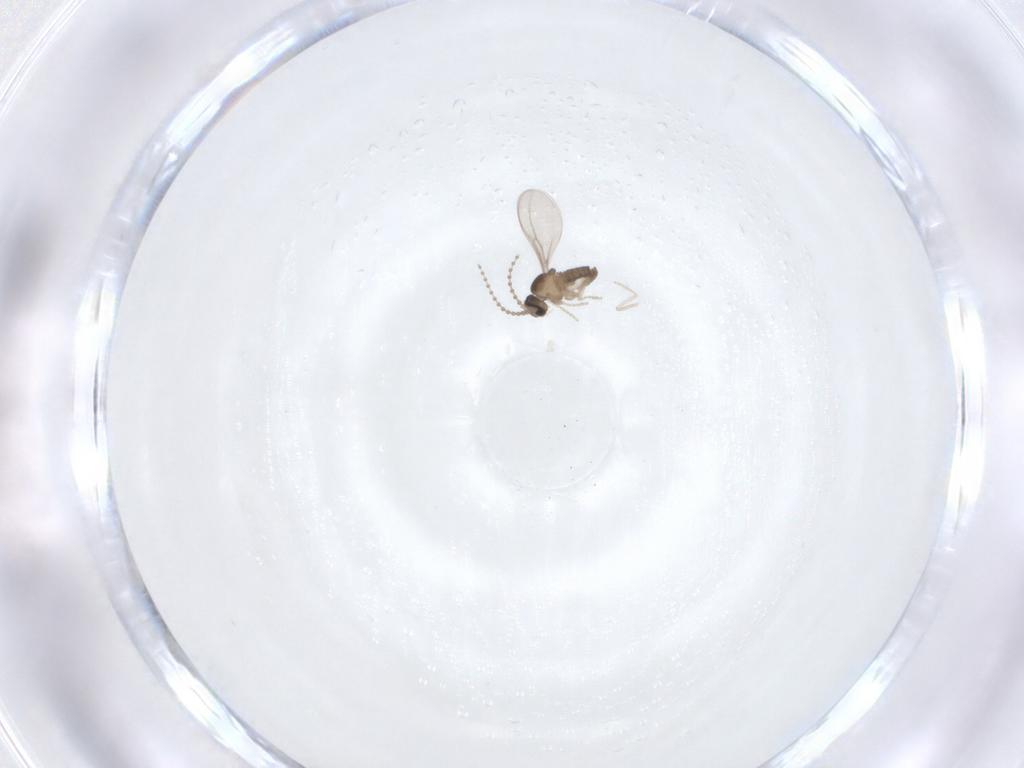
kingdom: Animalia
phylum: Arthropoda
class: Insecta
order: Diptera
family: Cecidomyiidae
